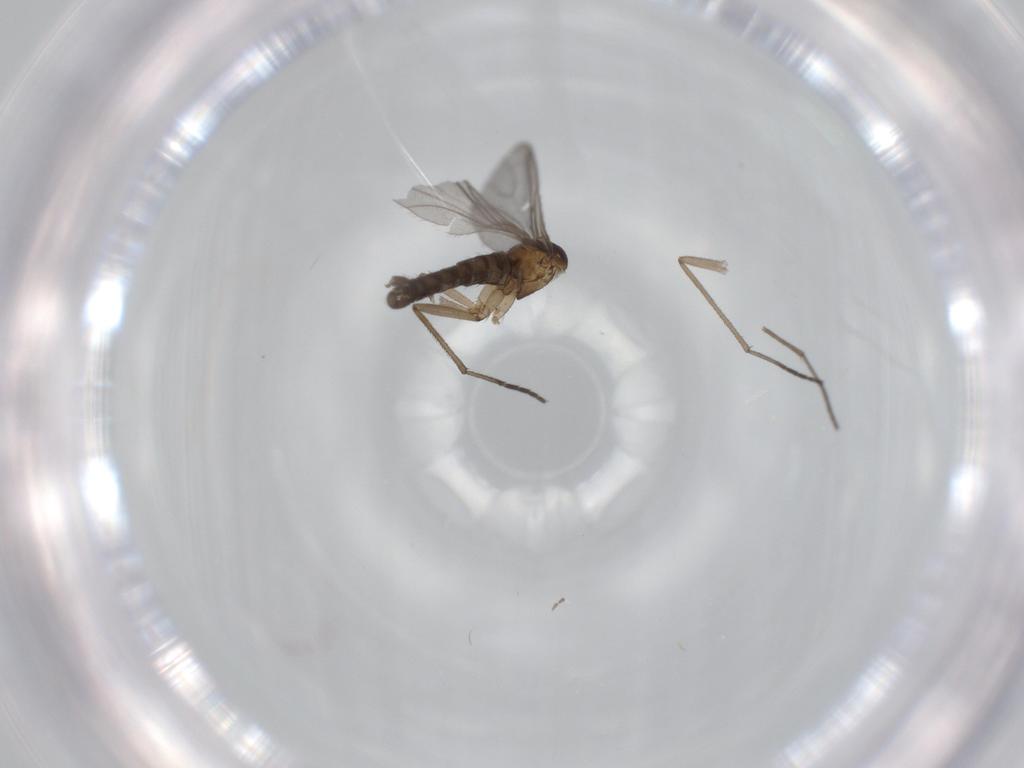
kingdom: Animalia
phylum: Arthropoda
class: Insecta
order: Diptera
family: Sciaridae
